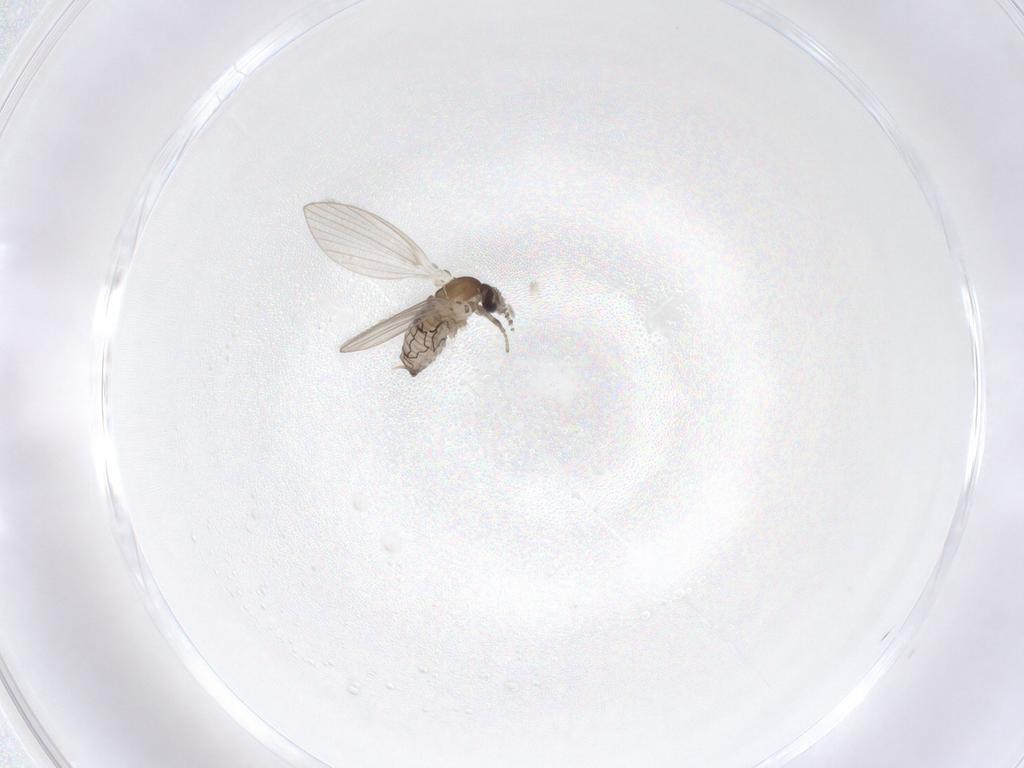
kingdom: Animalia
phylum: Arthropoda
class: Insecta
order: Diptera
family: Psychodidae
